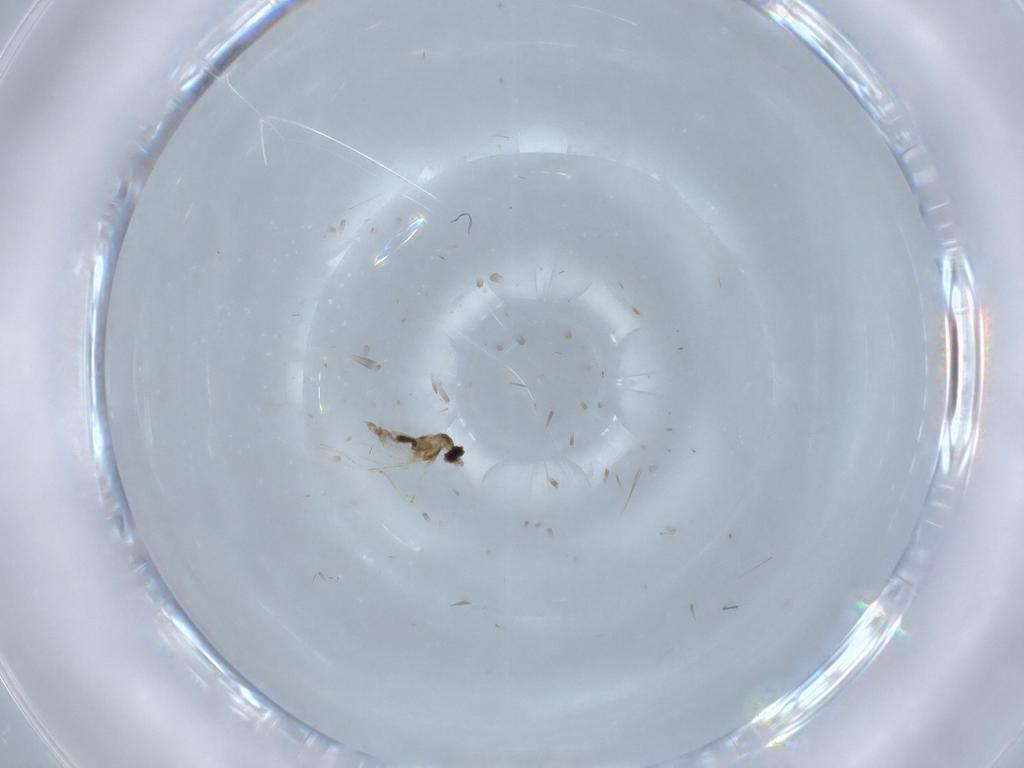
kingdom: Animalia
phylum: Arthropoda
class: Insecta
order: Diptera
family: Cecidomyiidae
